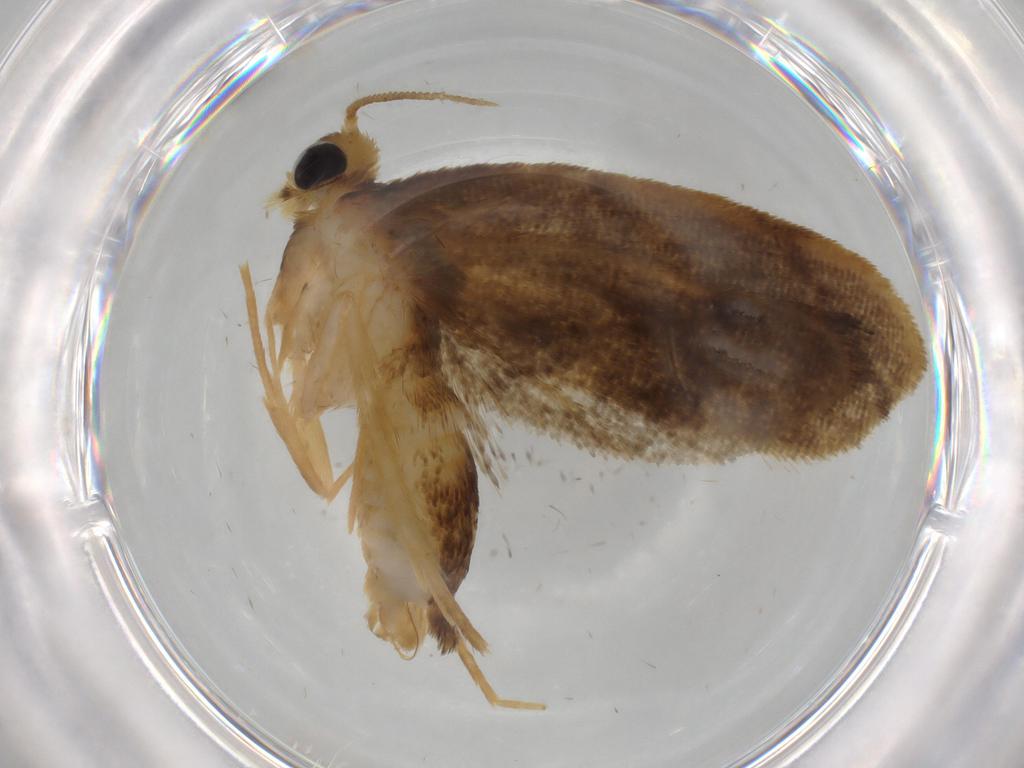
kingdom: Animalia
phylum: Arthropoda
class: Insecta
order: Lepidoptera
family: Psychidae
